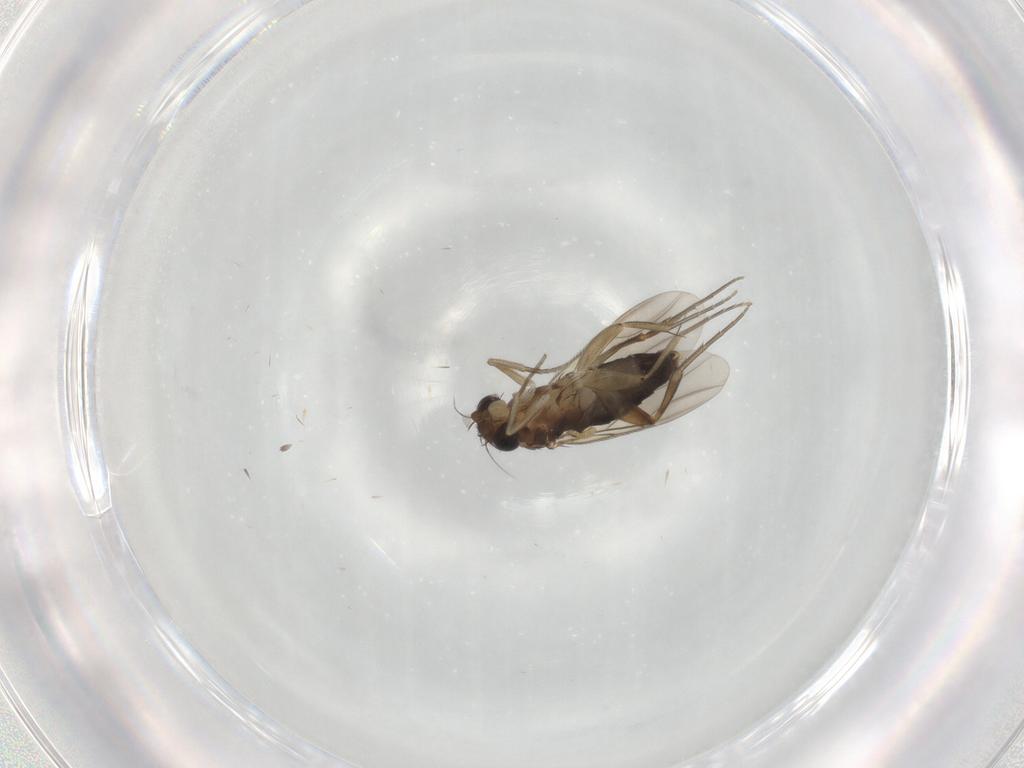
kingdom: Animalia
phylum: Arthropoda
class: Insecta
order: Diptera
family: Phoridae
